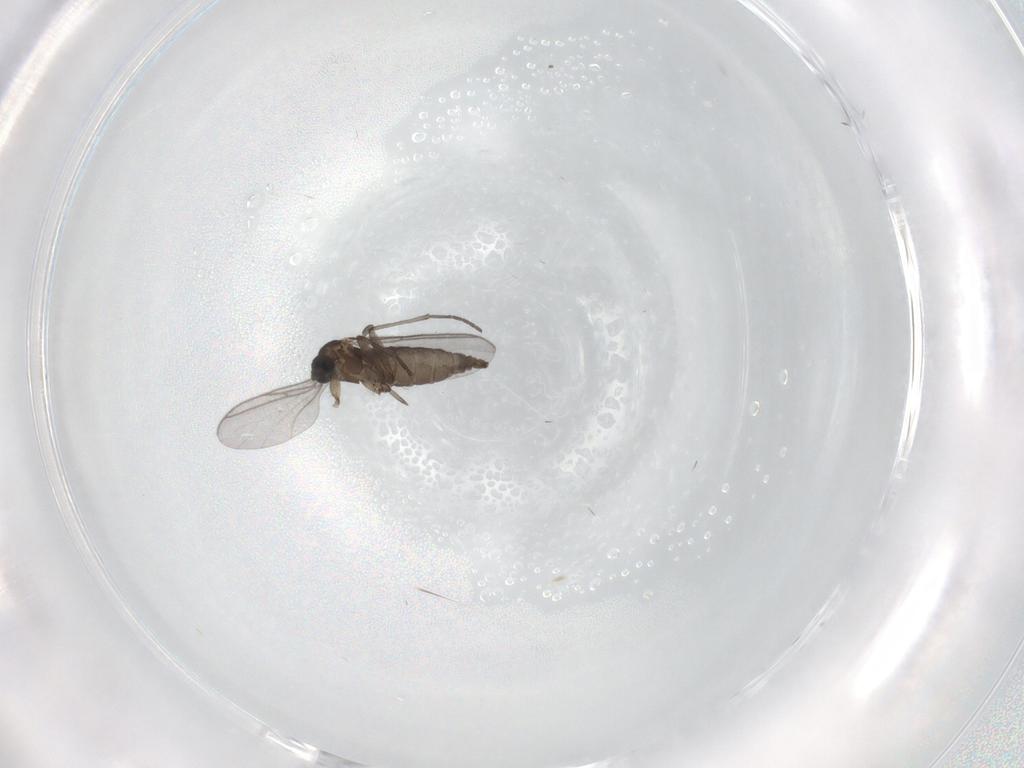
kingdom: Animalia
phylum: Arthropoda
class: Insecta
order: Diptera
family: Sciaridae
